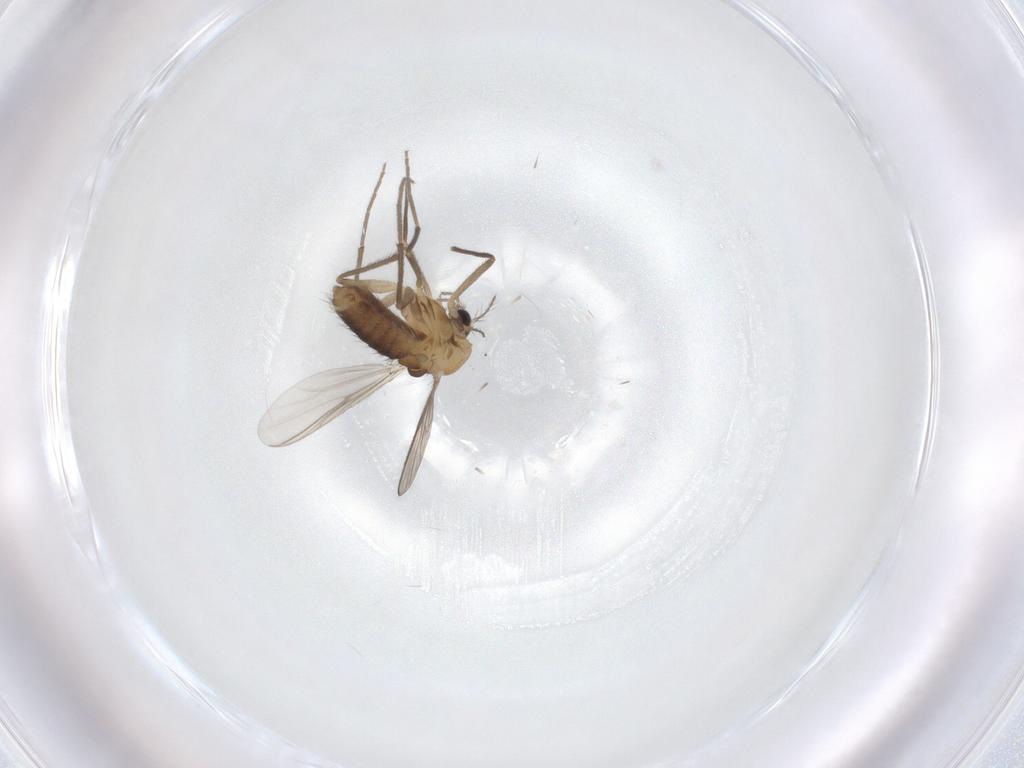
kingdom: Animalia
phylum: Arthropoda
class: Insecta
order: Diptera
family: Chironomidae
